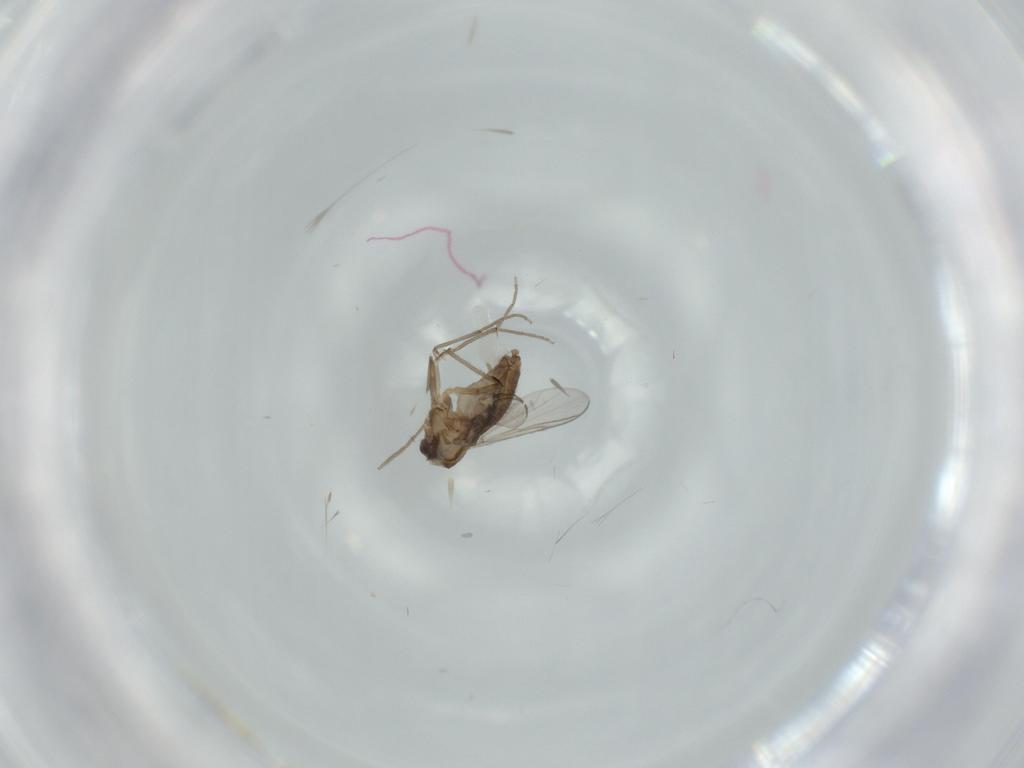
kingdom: Animalia
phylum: Arthropoda
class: Insecta
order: Diptera
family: Chironomidae
